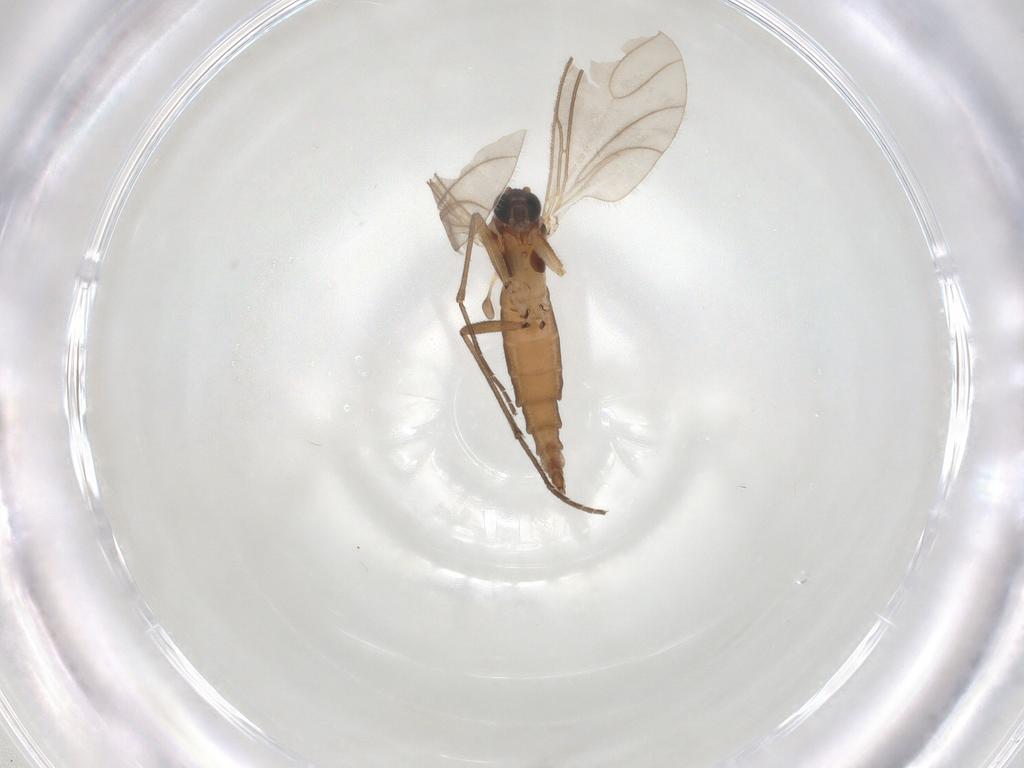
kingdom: Animalia
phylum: Arthropoda
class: Insecta
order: Diptera
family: Sciaridae
